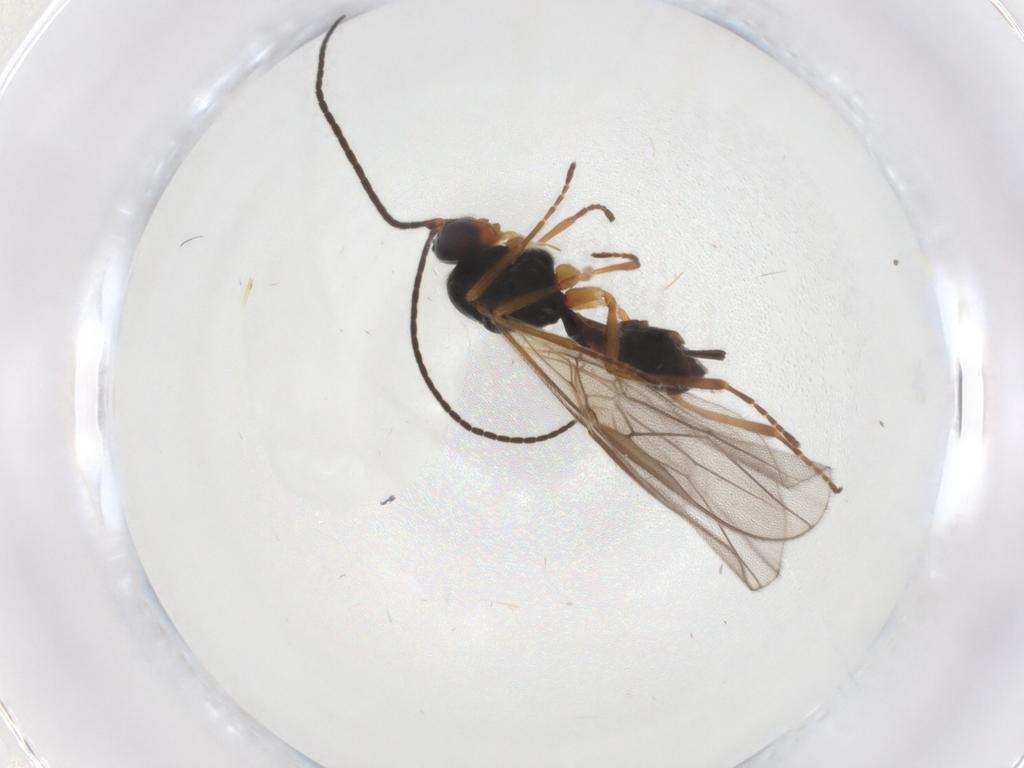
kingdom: Animalia
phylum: Arthropoda
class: Insecta
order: Hymenoptera
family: Braconidae
